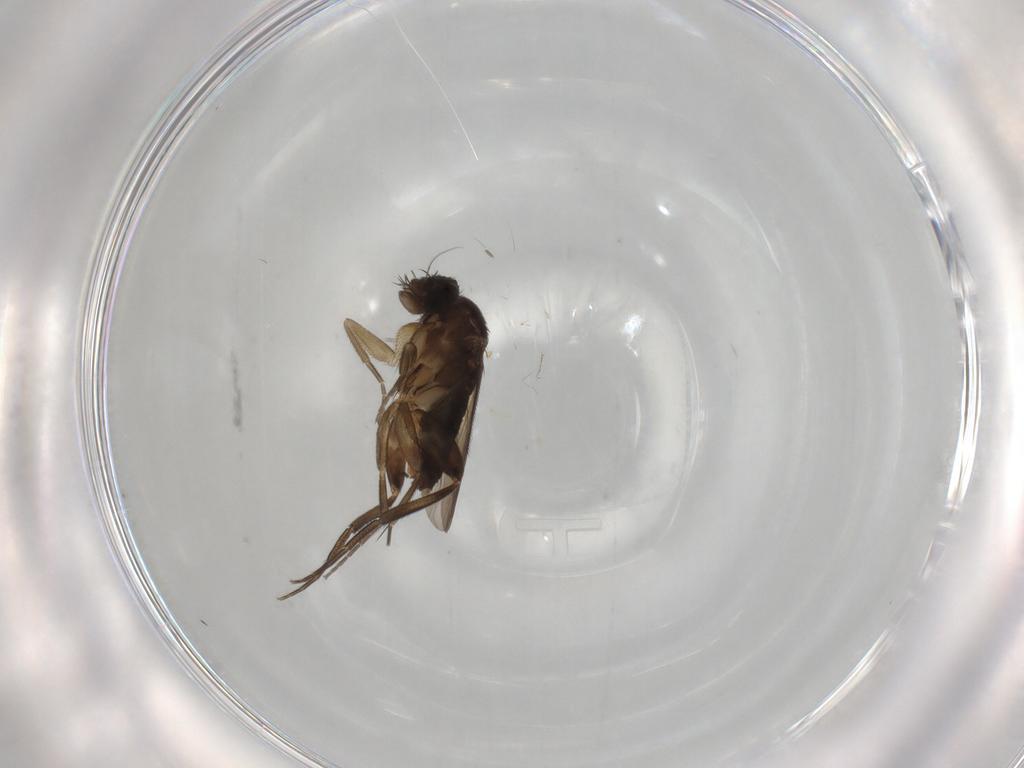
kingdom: Animalia
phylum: Arthropoda
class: Insecta
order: Diptera
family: Phoridae
